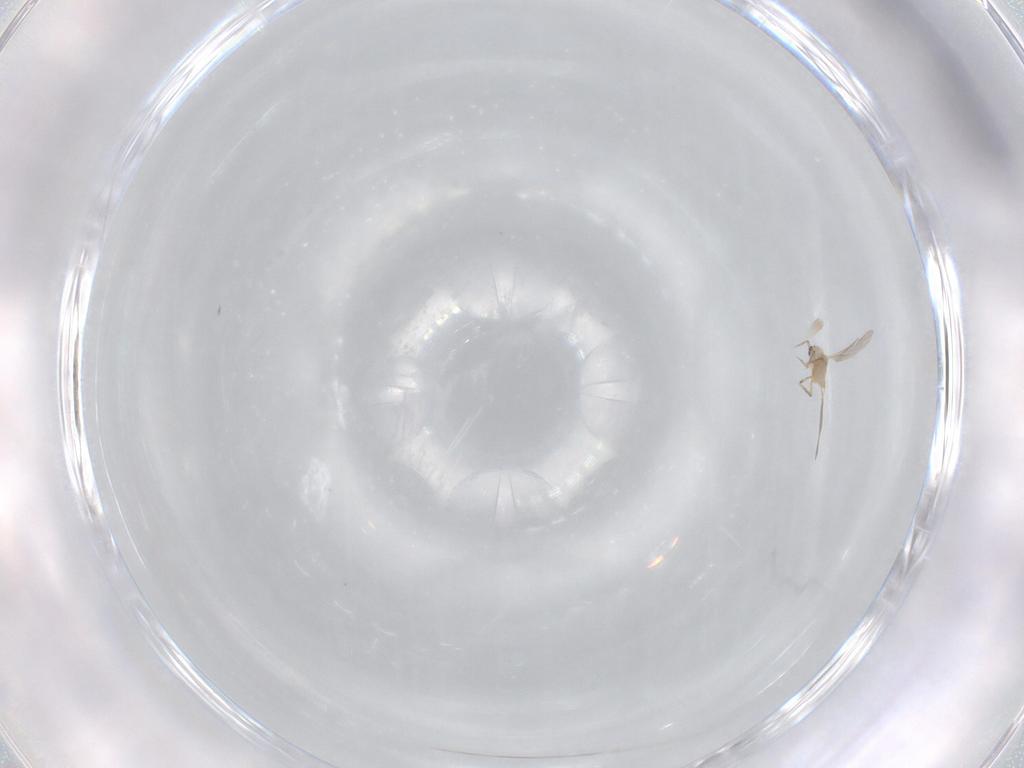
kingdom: Animalia
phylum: Arthropoda
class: Insecta
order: Hemiptera
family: Diaspididae
